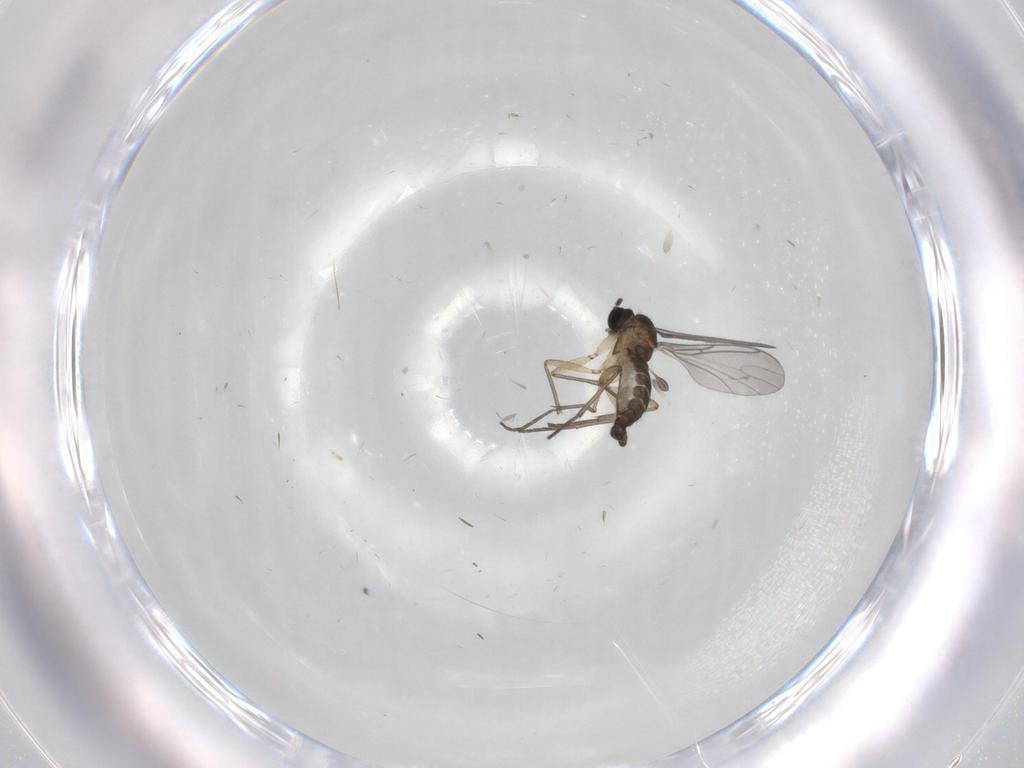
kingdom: Animalia
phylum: Arthropoda
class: Insecta
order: Diptera
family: Sciaridae
